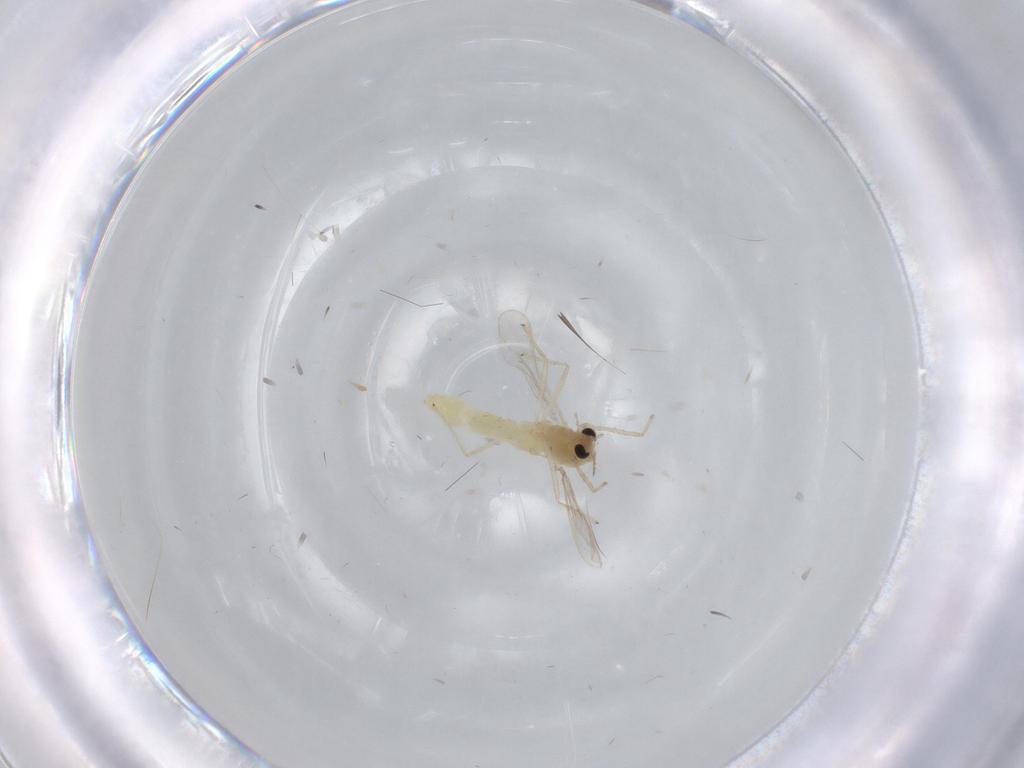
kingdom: Animalia
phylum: Arthropoda
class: Insecta
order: Diptera
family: Chironomidae
